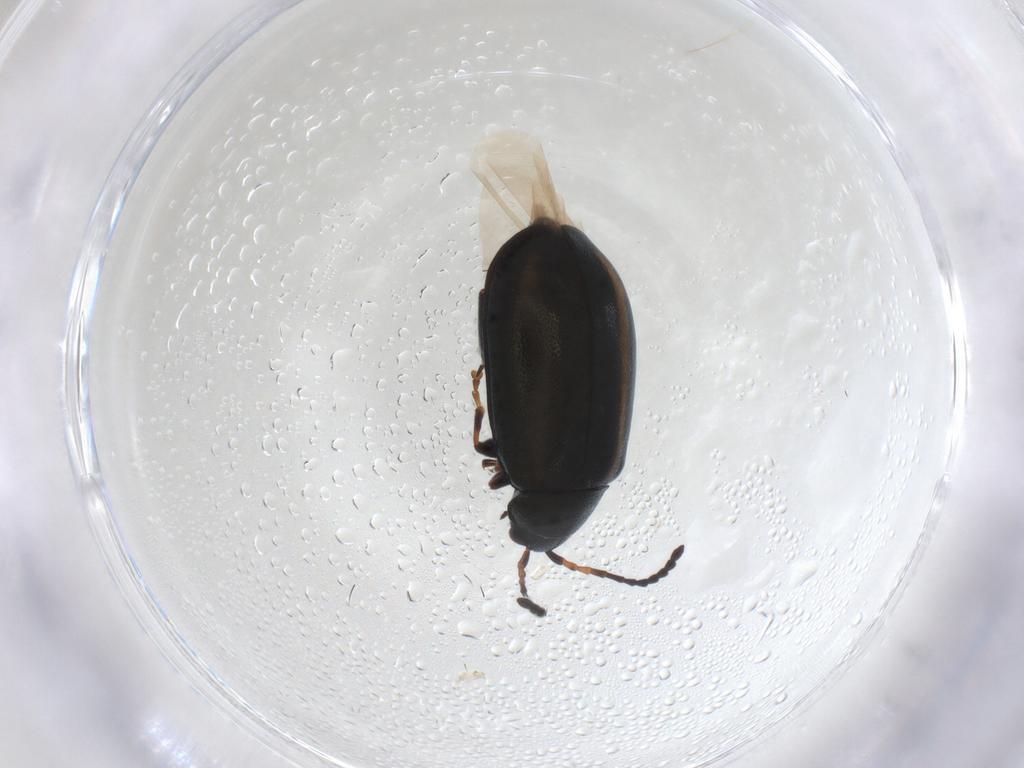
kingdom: Animalia
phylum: Arthropoda
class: Insecta
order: Coleoptera
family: Chrysomelidae
